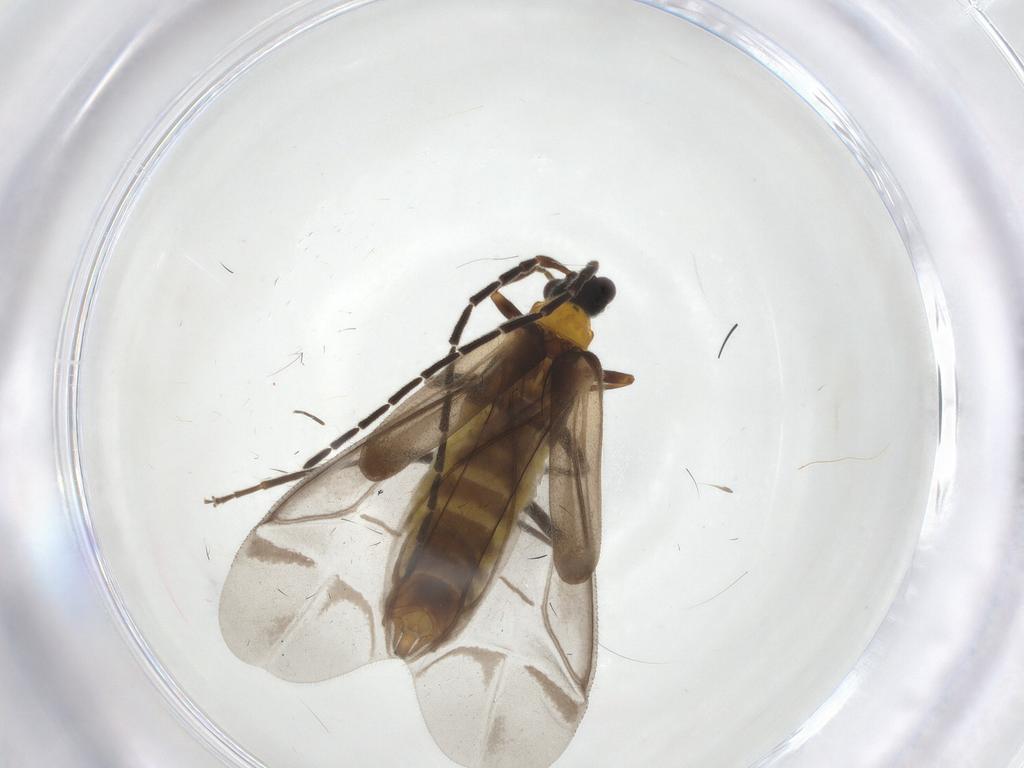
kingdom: Animalia
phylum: Arthropoda
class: Insecta
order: Coleoptera
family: Cantharidae
